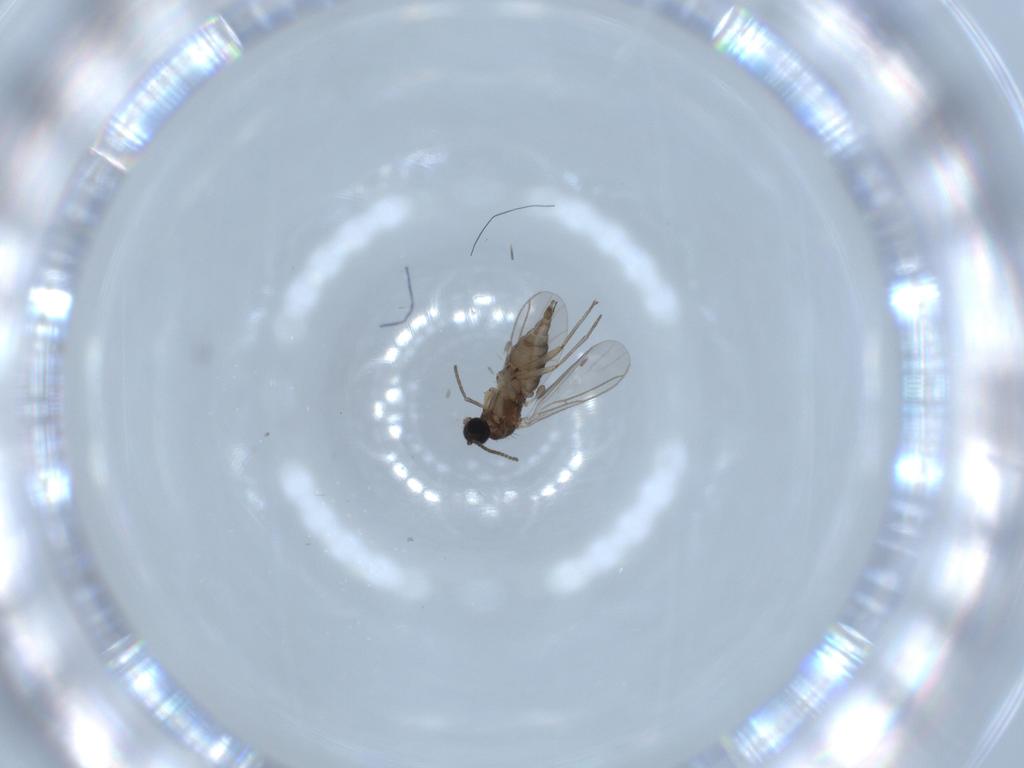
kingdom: Animalia
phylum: Arthropoda
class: Insecta
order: Diptera
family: Sciaridae
